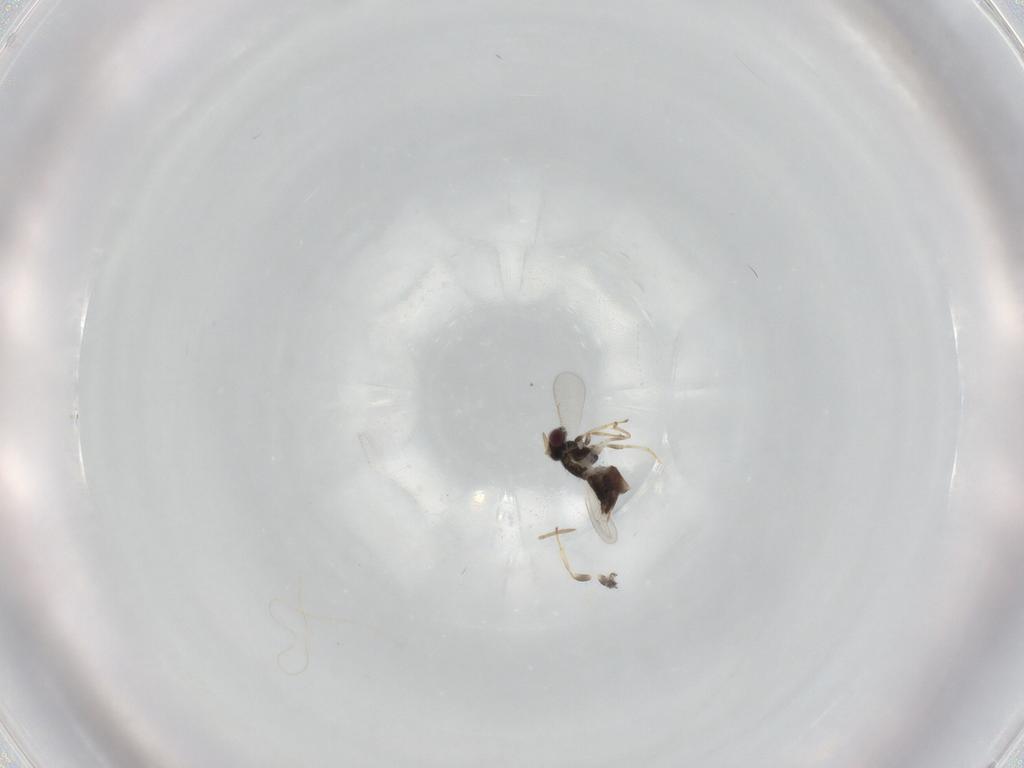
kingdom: Animalia
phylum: Arthropoda
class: Insecta
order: Hymenoptera
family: Aphelinidae
